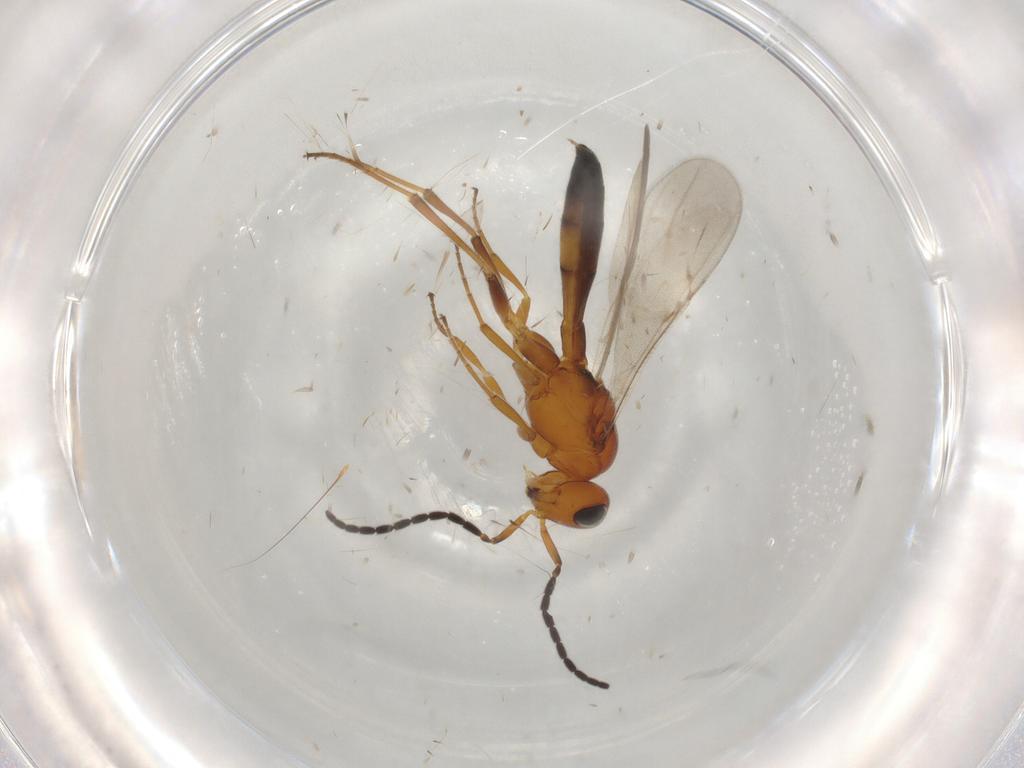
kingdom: Animalia
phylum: Arthropoda
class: Insecta
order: Hymenoptera
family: Scelionidae
